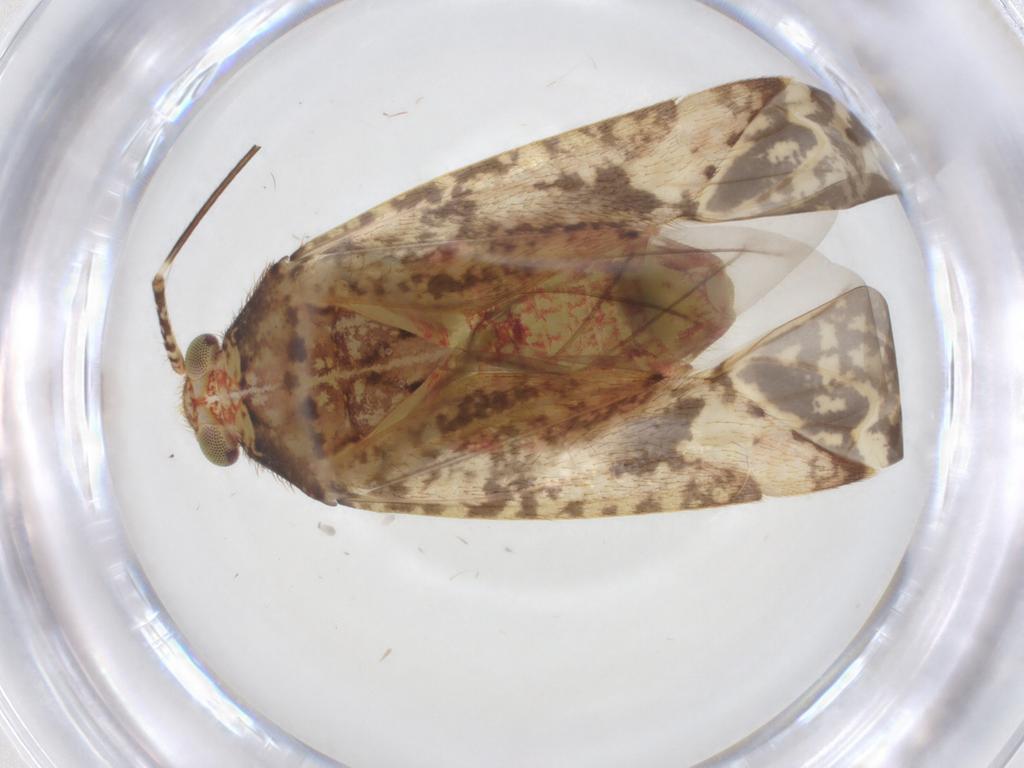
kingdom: Animalia
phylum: Arthropoda
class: Insecta
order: Hemiptera
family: Miridae
